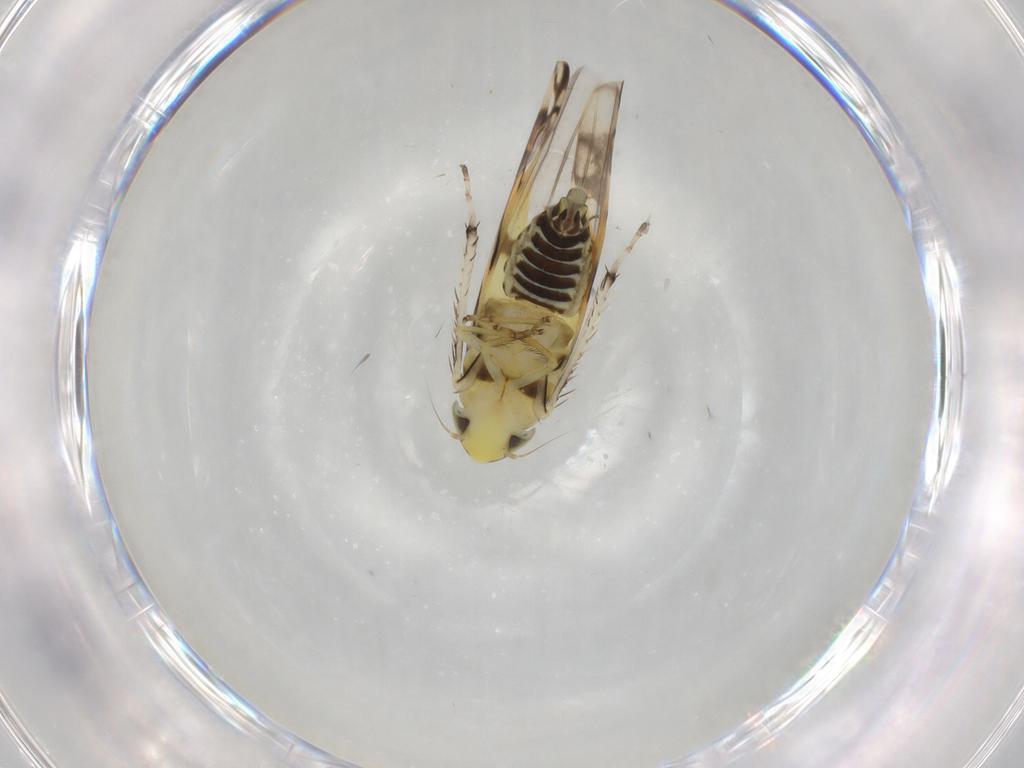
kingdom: Animalia
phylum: Arthropoda
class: Insecta
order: Hemiptera
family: Cicadellidae
